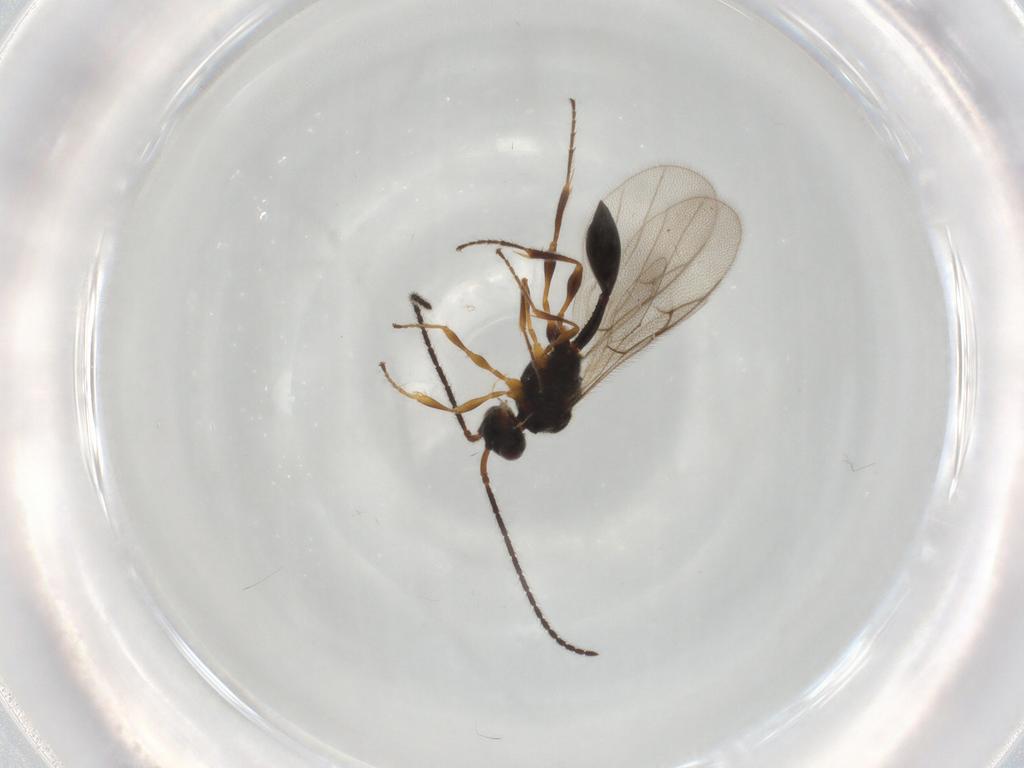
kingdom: Animalia
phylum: Arthropoda
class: Insecta
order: Hymenoptera
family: Diapriidae
